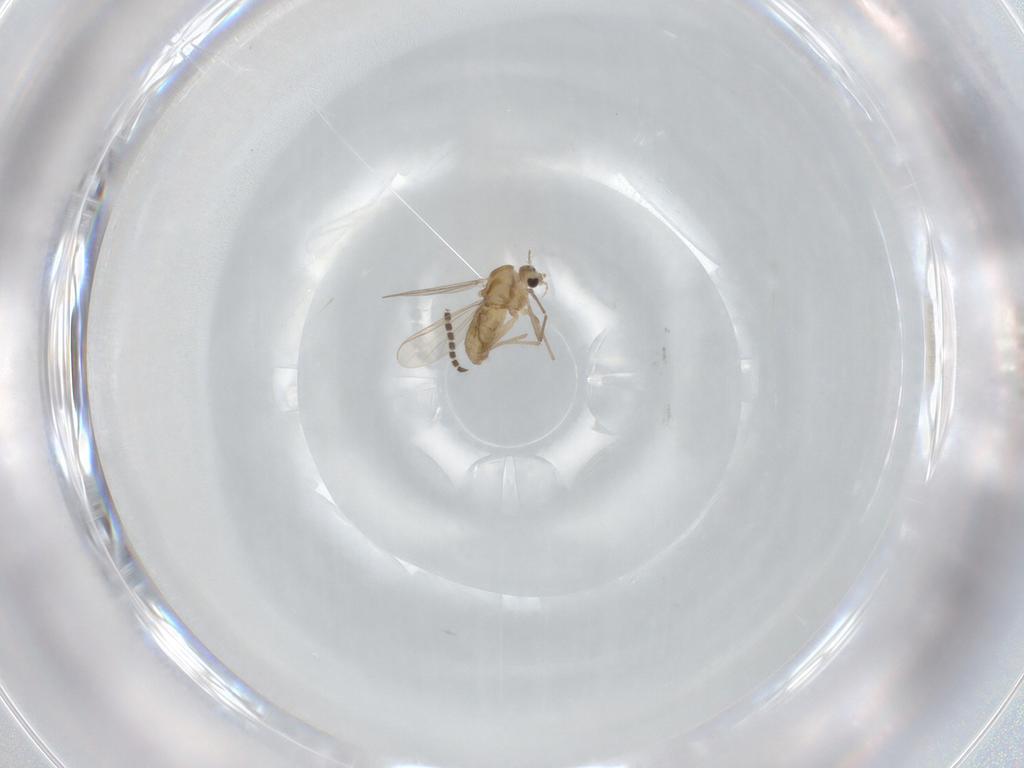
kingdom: Animalia
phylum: Arthropoda
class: Insecta
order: Diptera
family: Chironomidae
